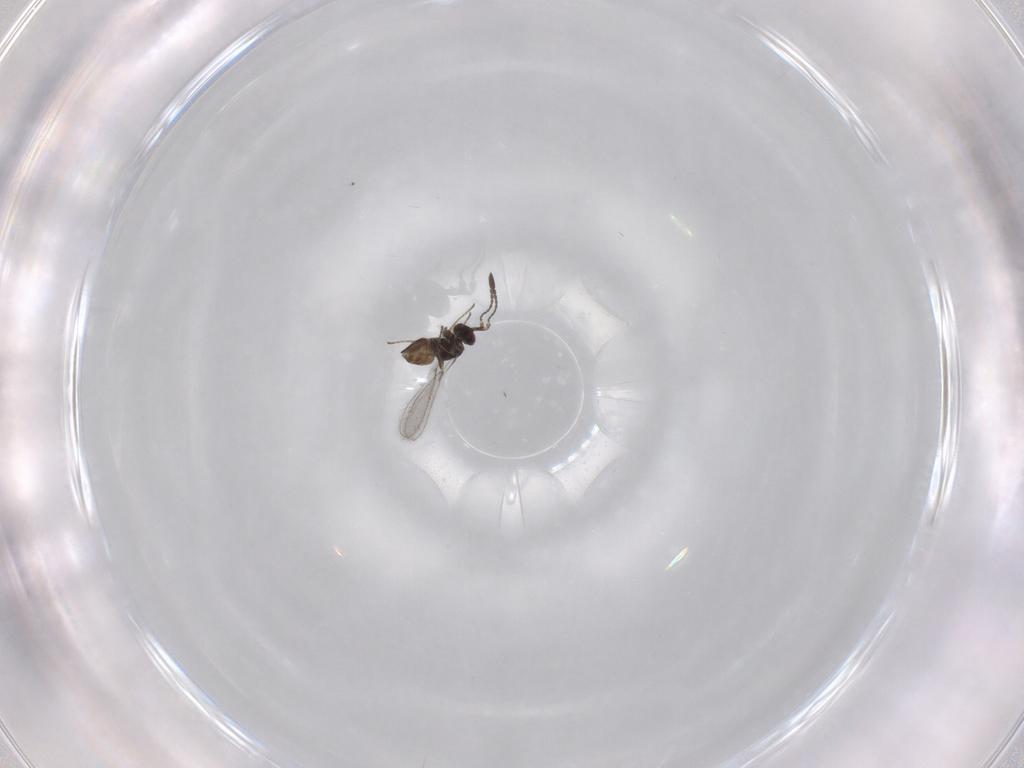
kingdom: Animalia
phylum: Arthropoda
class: Insecta
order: Hymenoptera
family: Mymaridae
